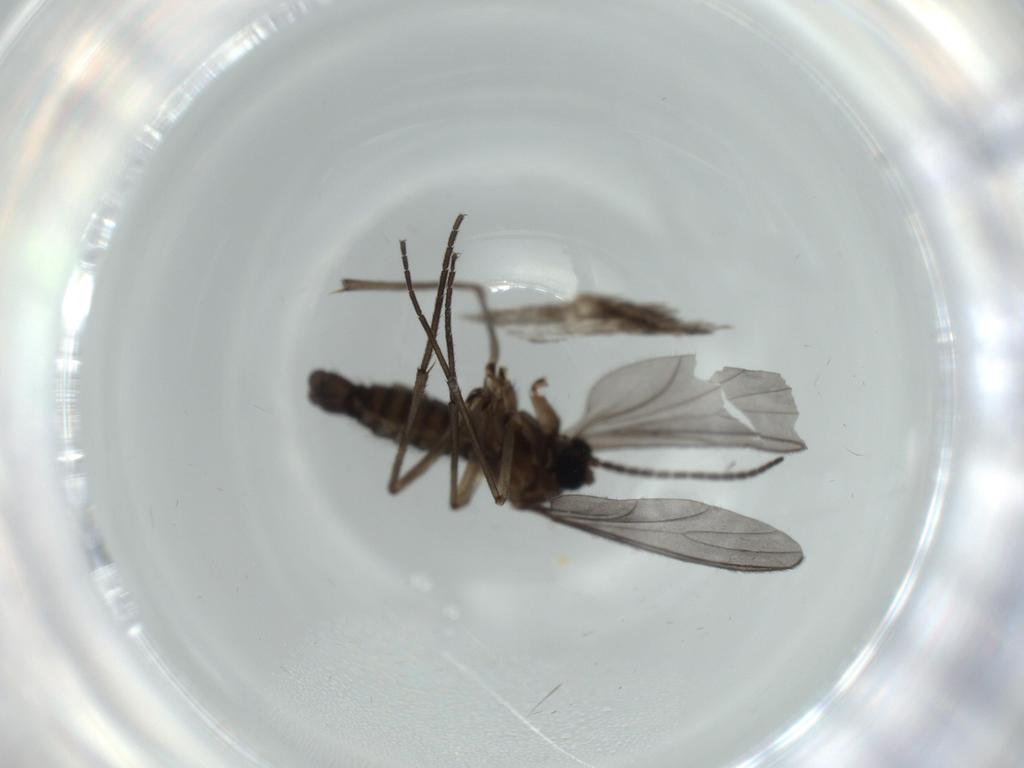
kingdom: Animalia
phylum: Arthropoda
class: Insecta
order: Diptera
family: Sciaridae
